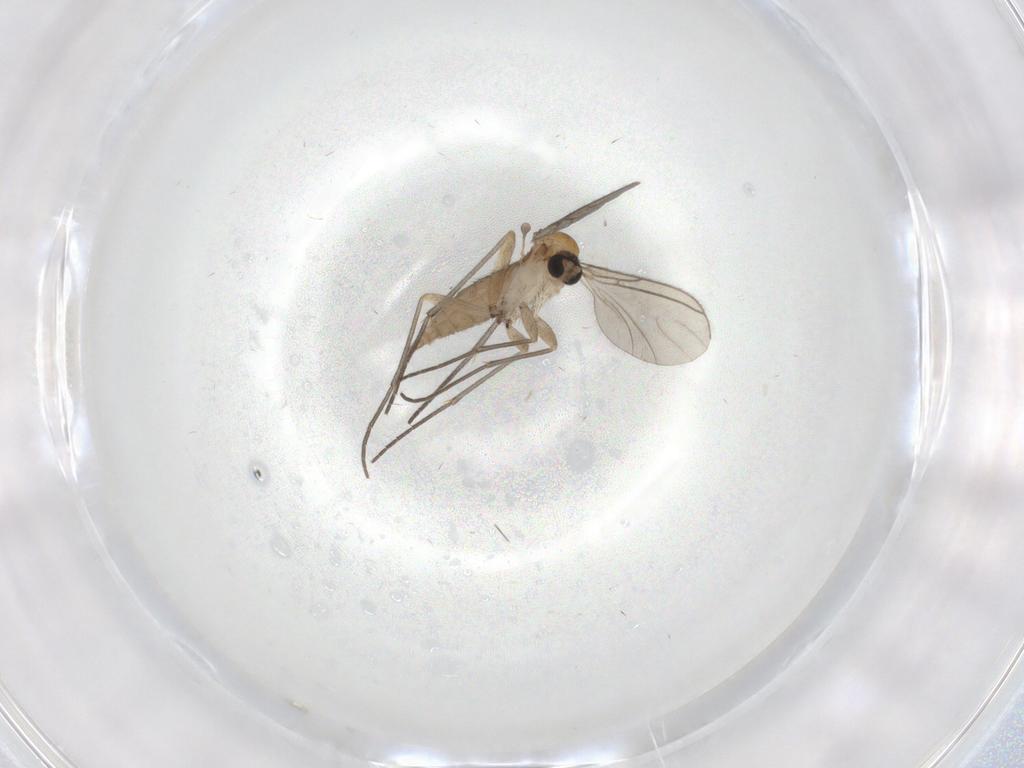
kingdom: Animalia
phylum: Arthropoda
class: Insecta
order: Diptera
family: Sciaridae
